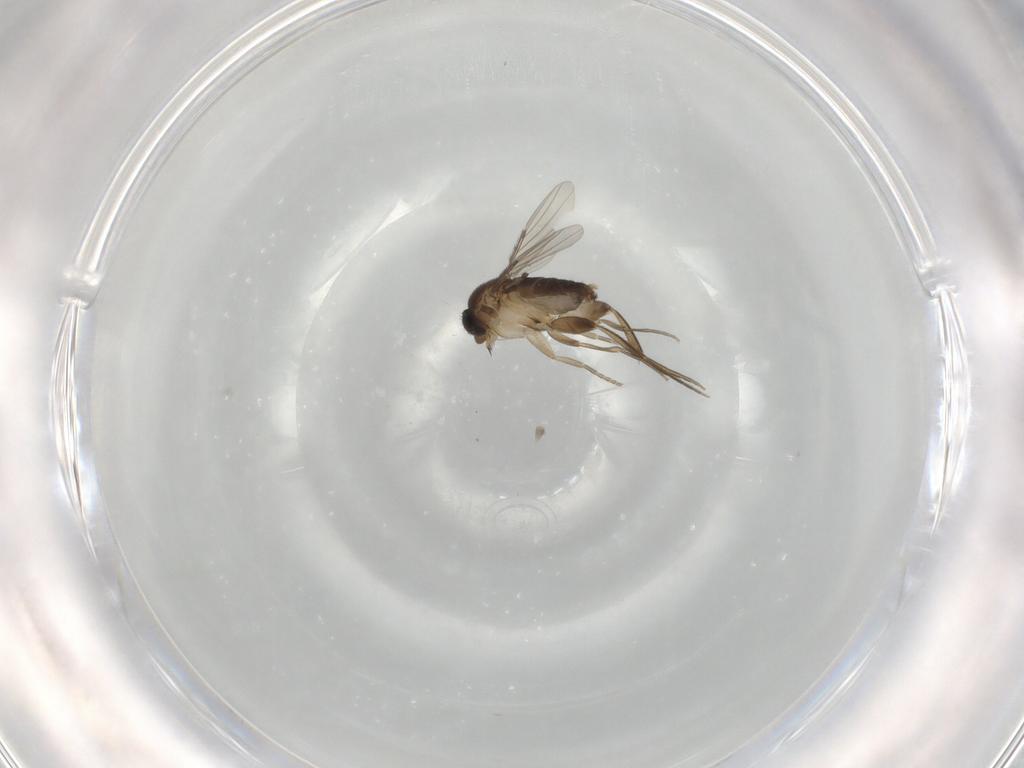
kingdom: Animalia
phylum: Arthropoda
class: Insecta
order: Diptera
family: Phoridae
